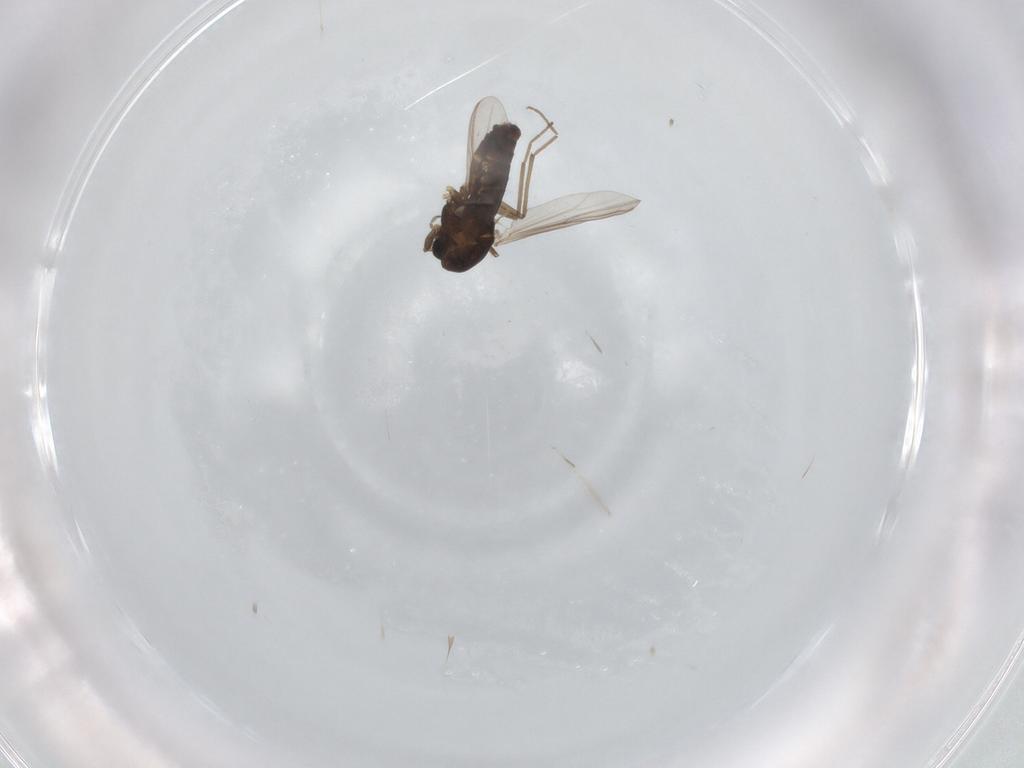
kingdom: Animalia
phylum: Arthropoda
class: Insecta
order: Diptera
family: Chironomidae
